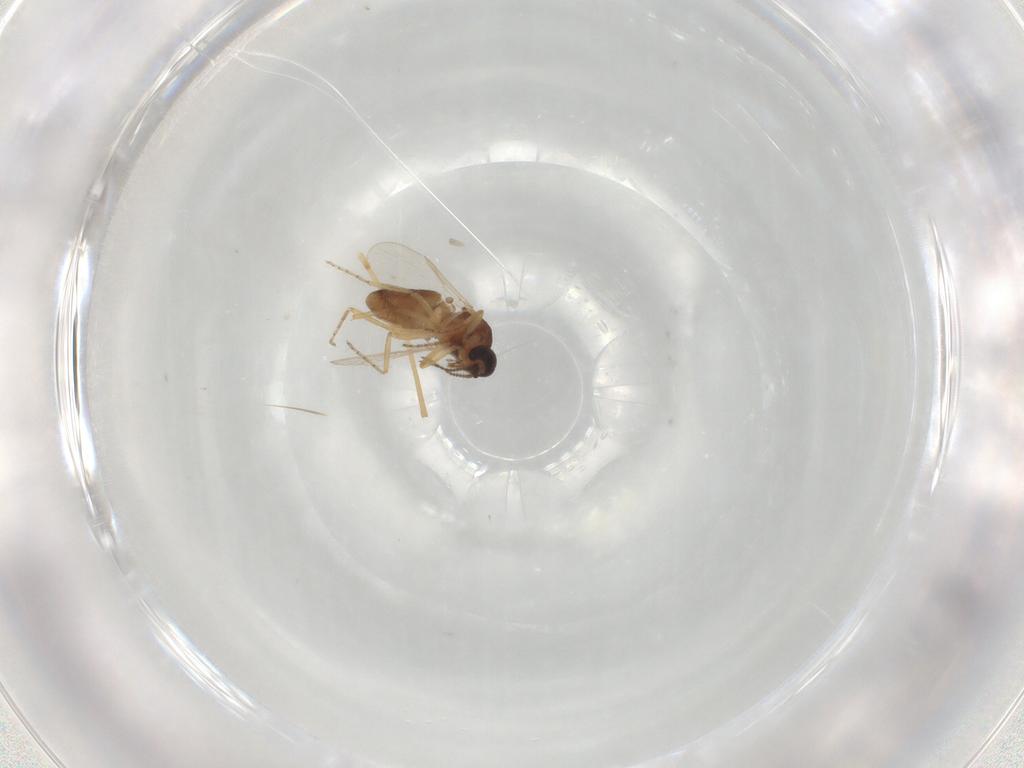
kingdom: Animalia
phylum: Arthropoda
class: Insecta
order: Diptera
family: Ceratopogonidae
